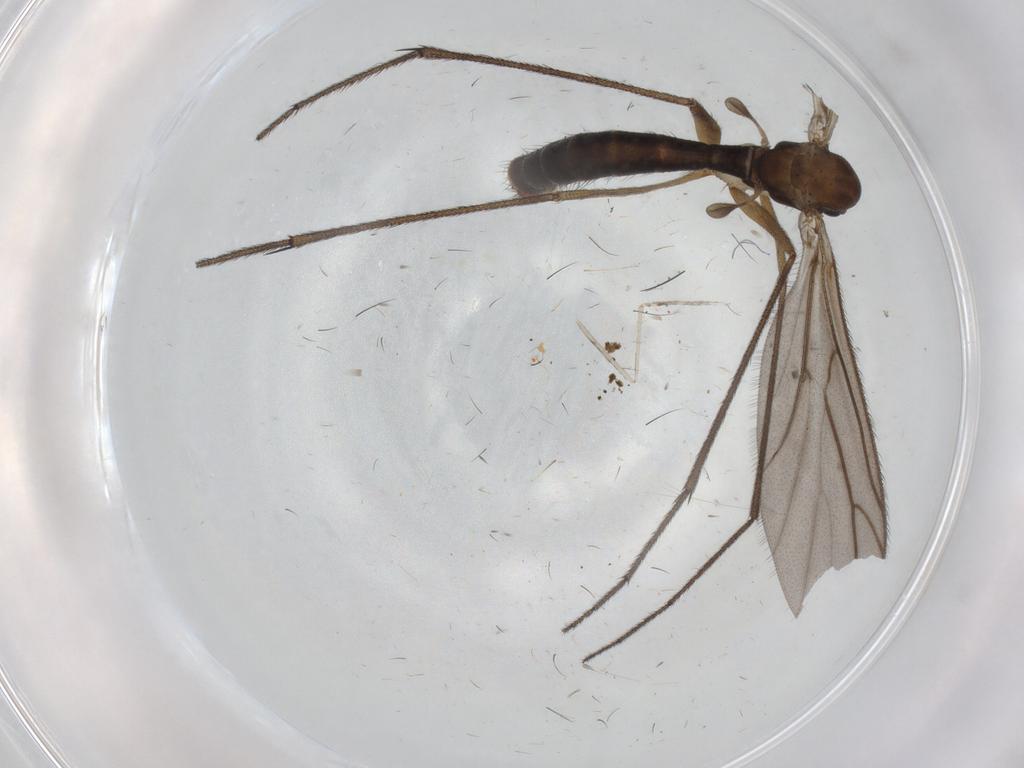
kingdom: Animalia
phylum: Arthropoda
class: Insecta
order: Diptera
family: Ditomyiidae
